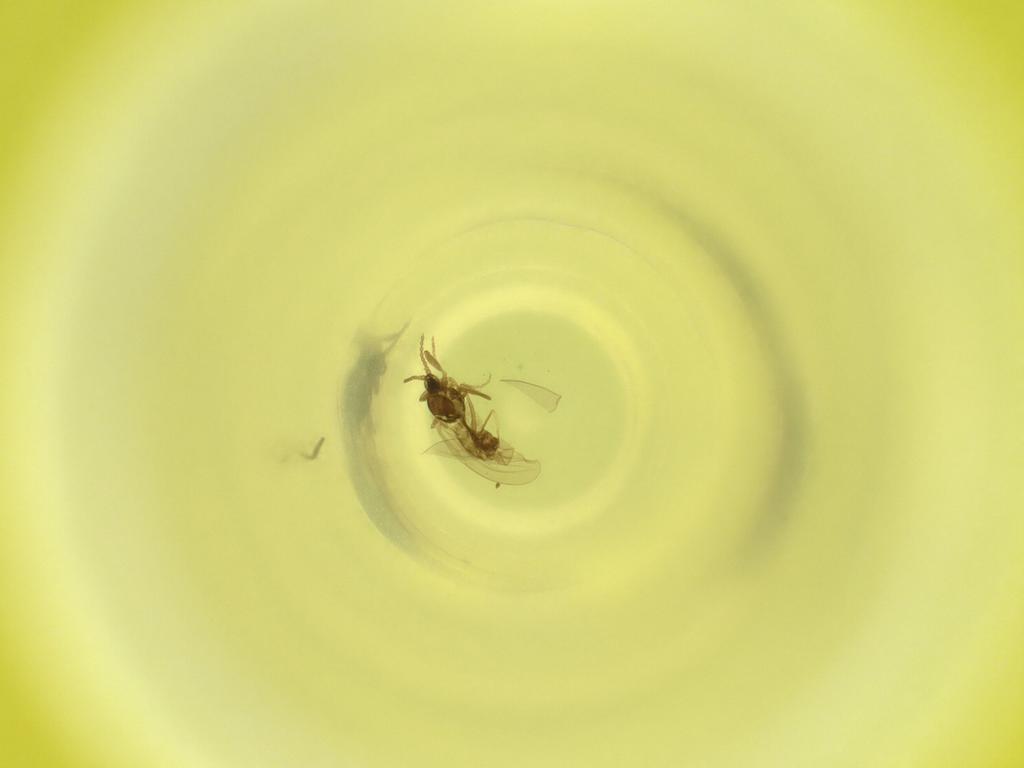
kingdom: Animalia
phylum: Arthropoda
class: Insecta
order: Diptera
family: Cecidomyiidae
